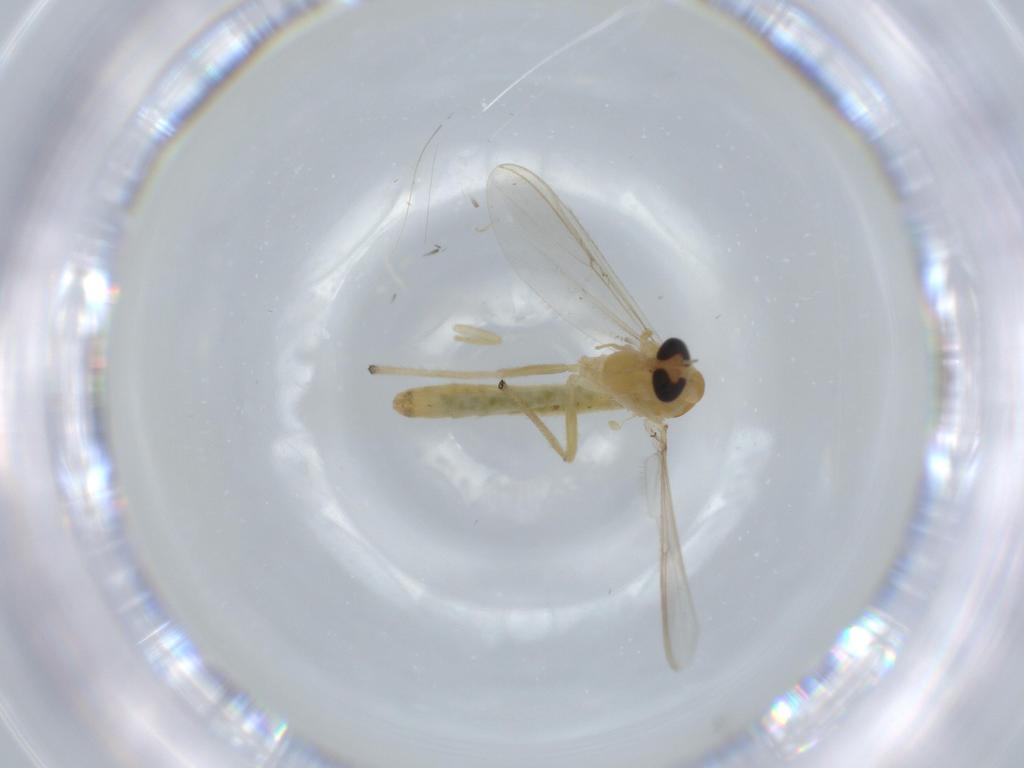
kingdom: Animalia
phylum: Arthropoda
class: Insecta
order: Diptera
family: Chironomidae
